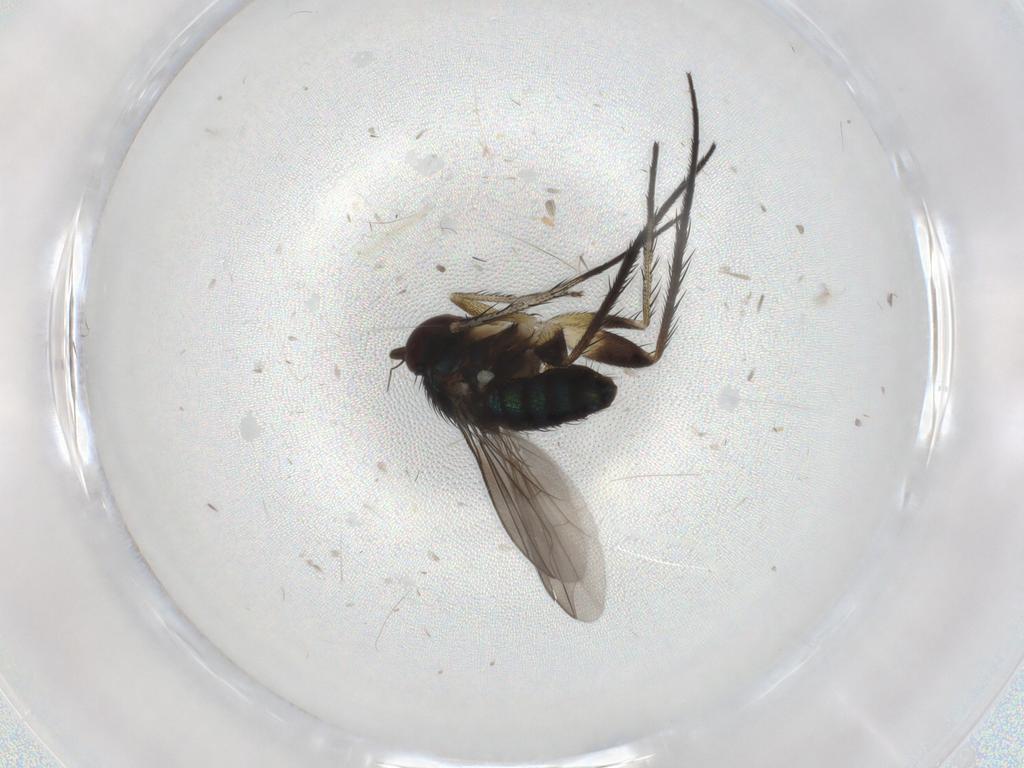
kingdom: Animalia
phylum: Arthropoda
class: Insecta
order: Diptera
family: Dolichopodidae
